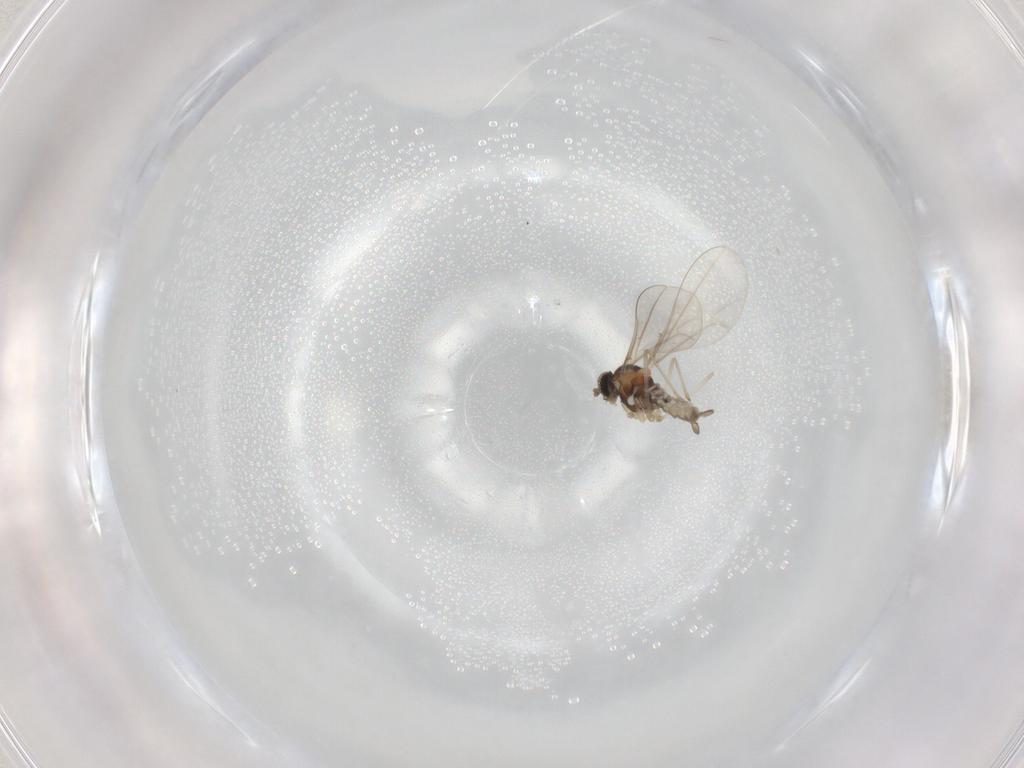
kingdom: Animalia
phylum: Arthropoda
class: Insecta
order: Diptera
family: Cecidomyiidae
